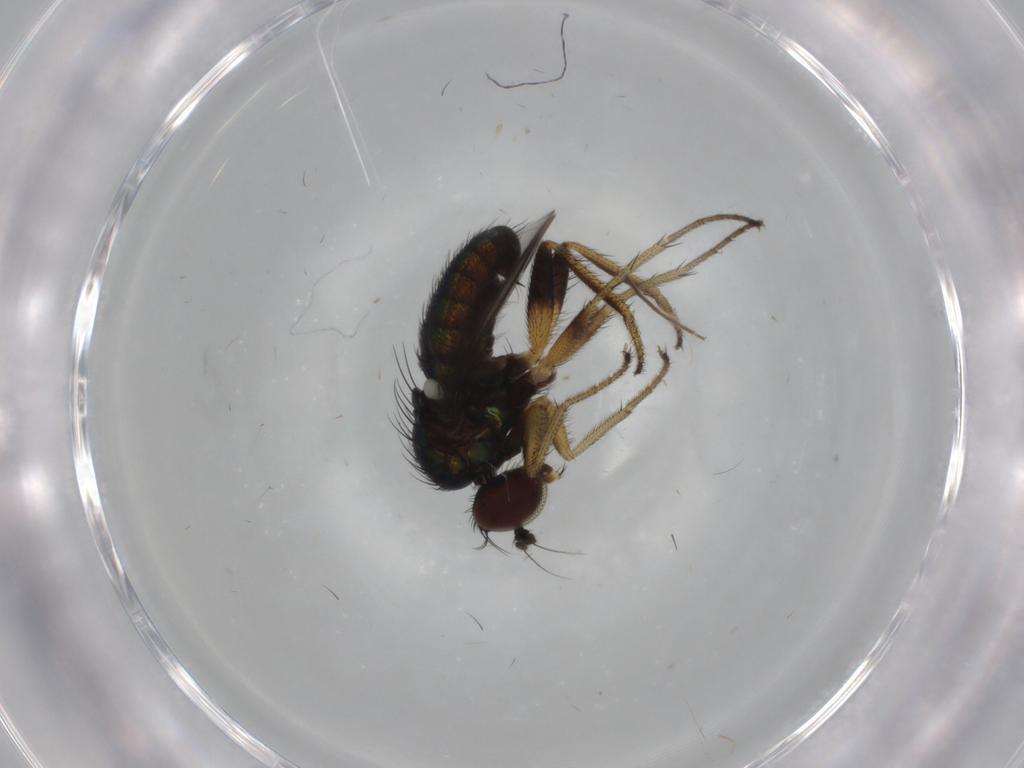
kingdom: Animalia
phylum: Arthropoda
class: Insecta
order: Diptera
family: Dolichopodidae
